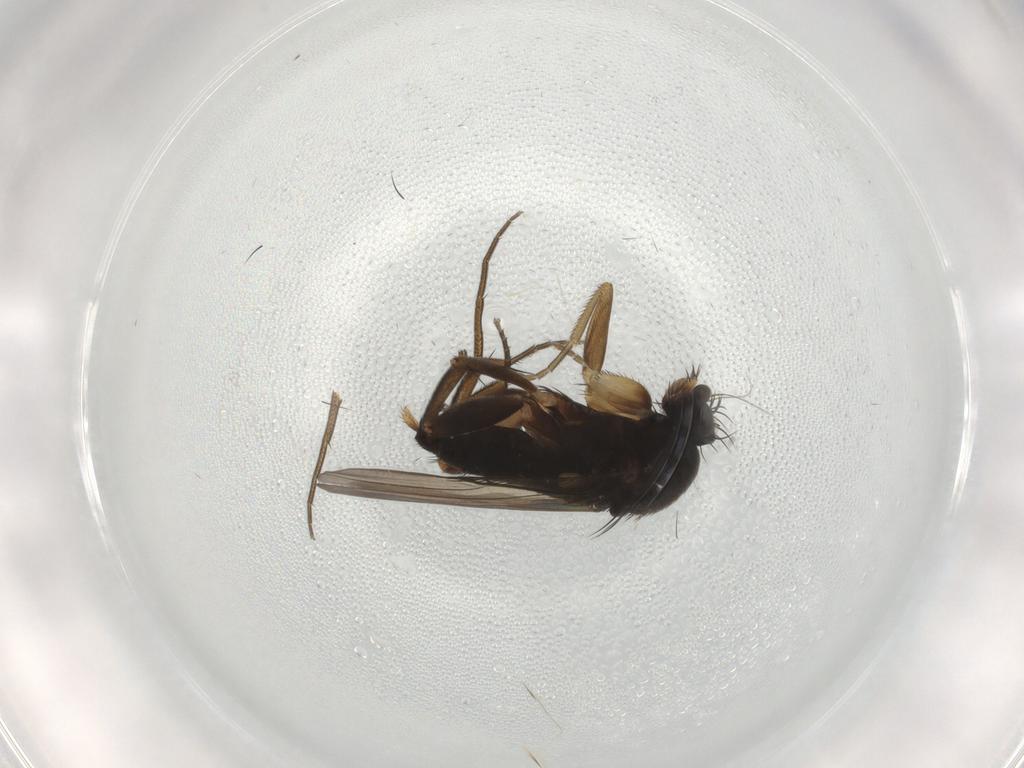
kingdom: Animalia
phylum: Arthropoda
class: Insecta
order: Diptera
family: Phoridae
